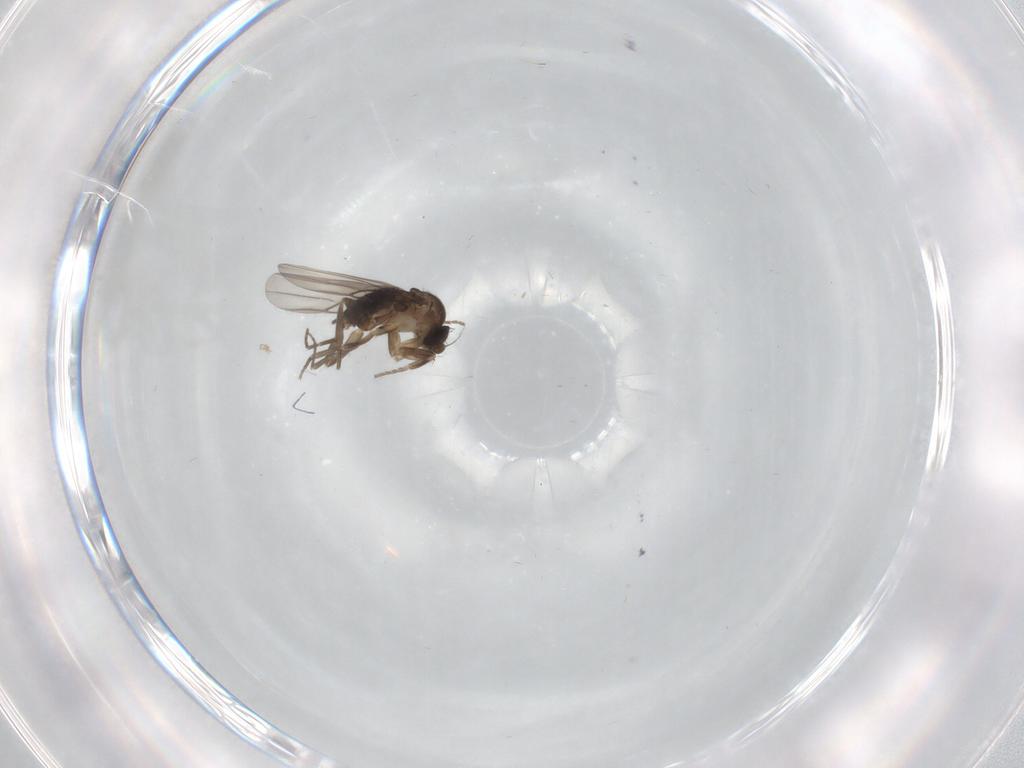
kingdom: Animalia
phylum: Arthropoda
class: Insecta
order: Diptera
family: Phoridae
